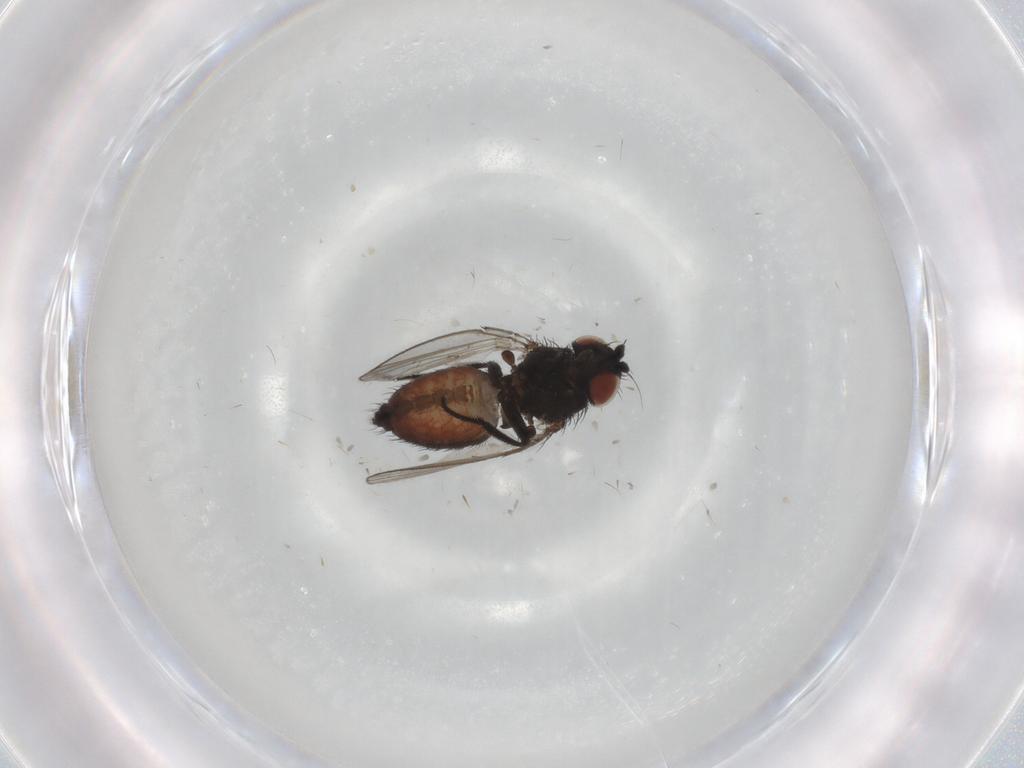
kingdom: Animalia
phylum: Arthropoda
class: Insecta
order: Diptera
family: Milichiidae
